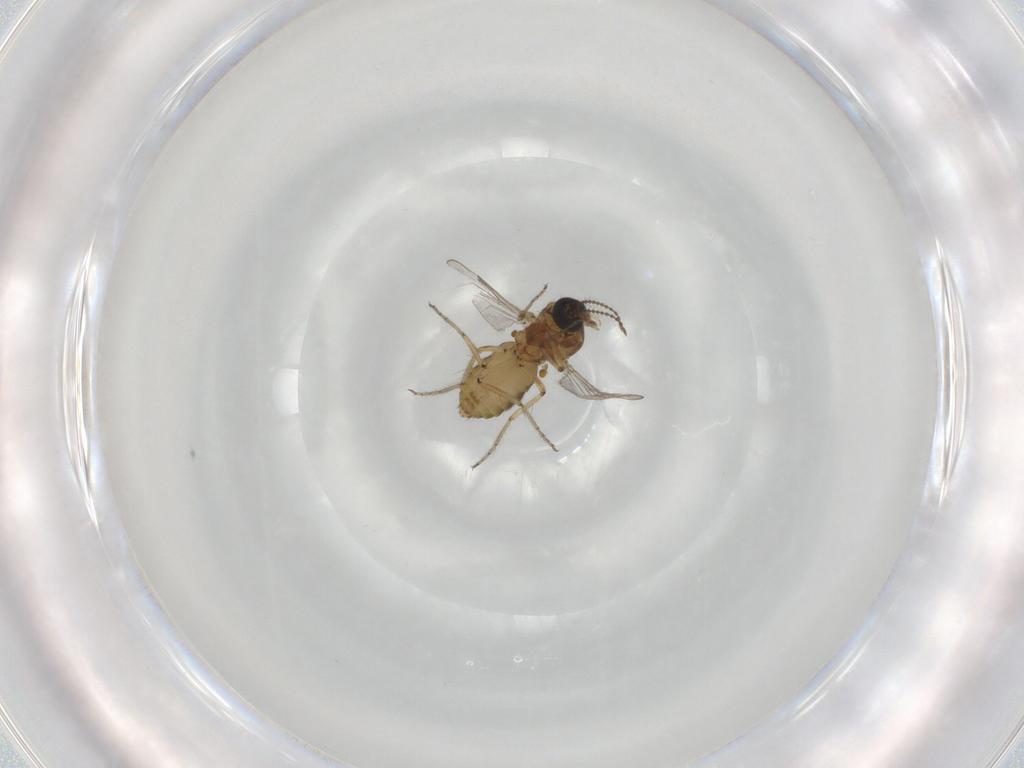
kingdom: Animalia
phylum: Arthropoda
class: Insecta
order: Diptera
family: Ceratopogonidae
